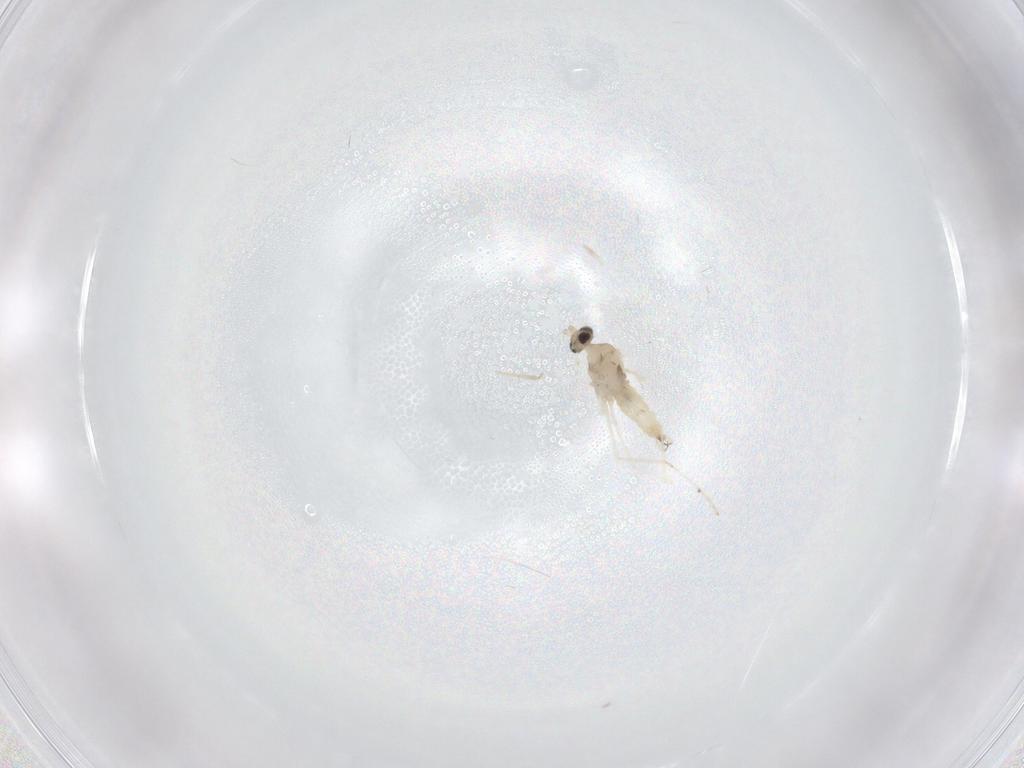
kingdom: Animalia
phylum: Arthropoda
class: Insecta
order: Diptera
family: Cecidomyiidae
